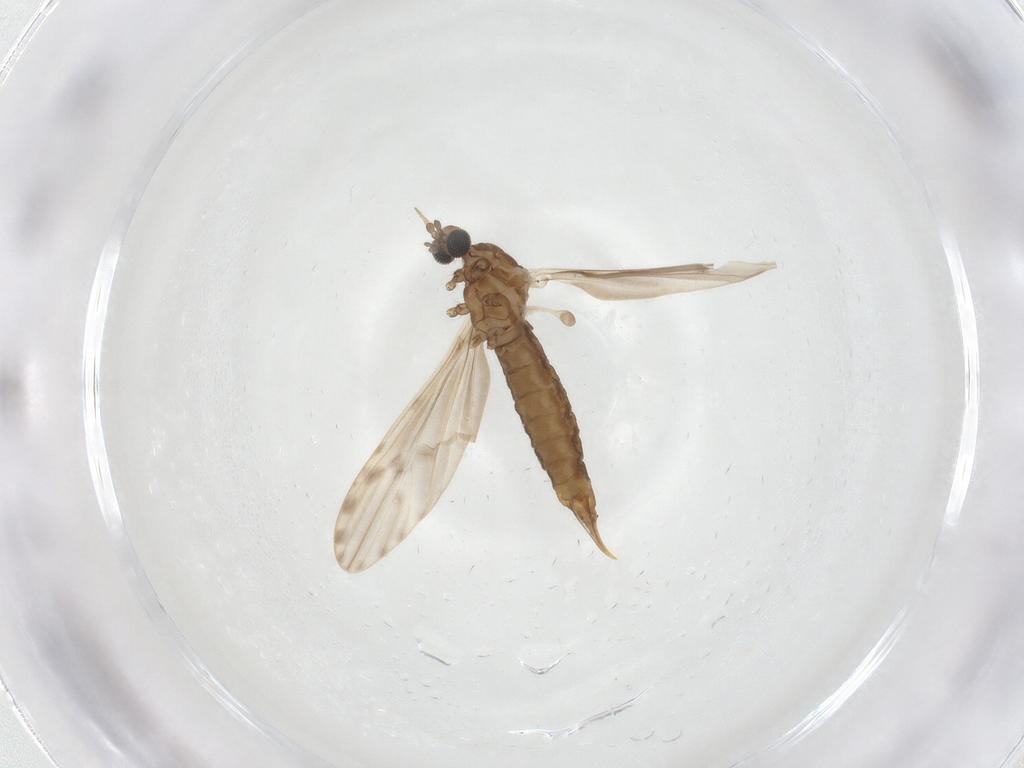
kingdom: Animalia
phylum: Arthropoda
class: Insecta
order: Diptera
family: Limoniidae
